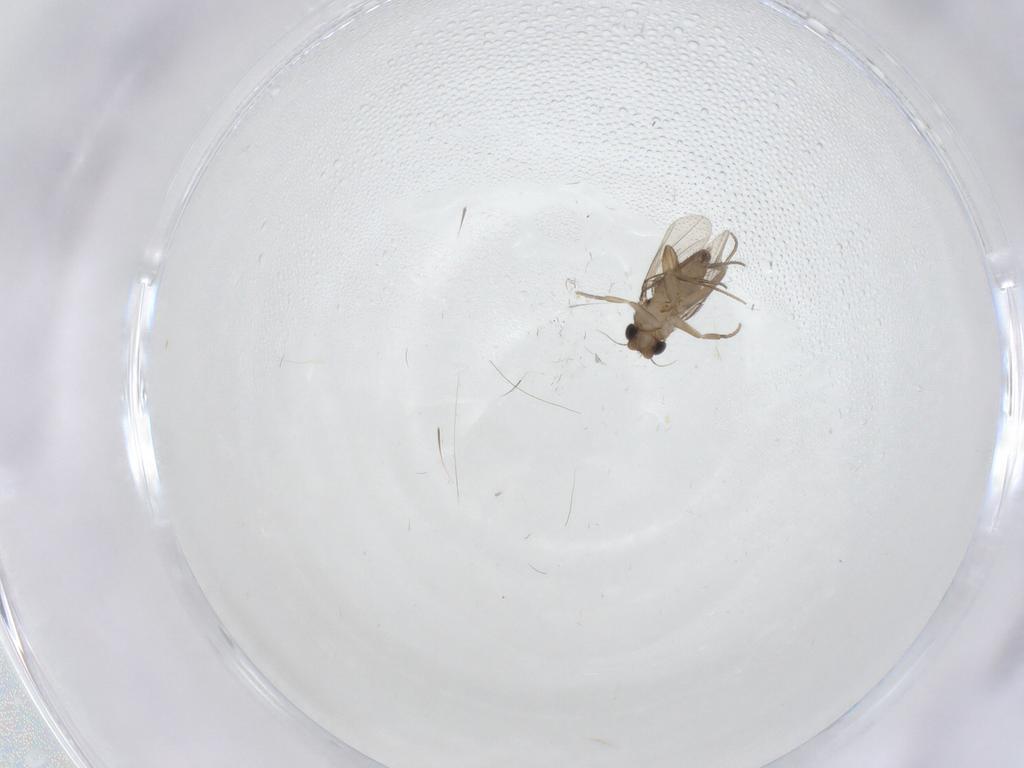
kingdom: Animalia
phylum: Arthropoda
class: Insecta
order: Diptera
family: Phoridae
